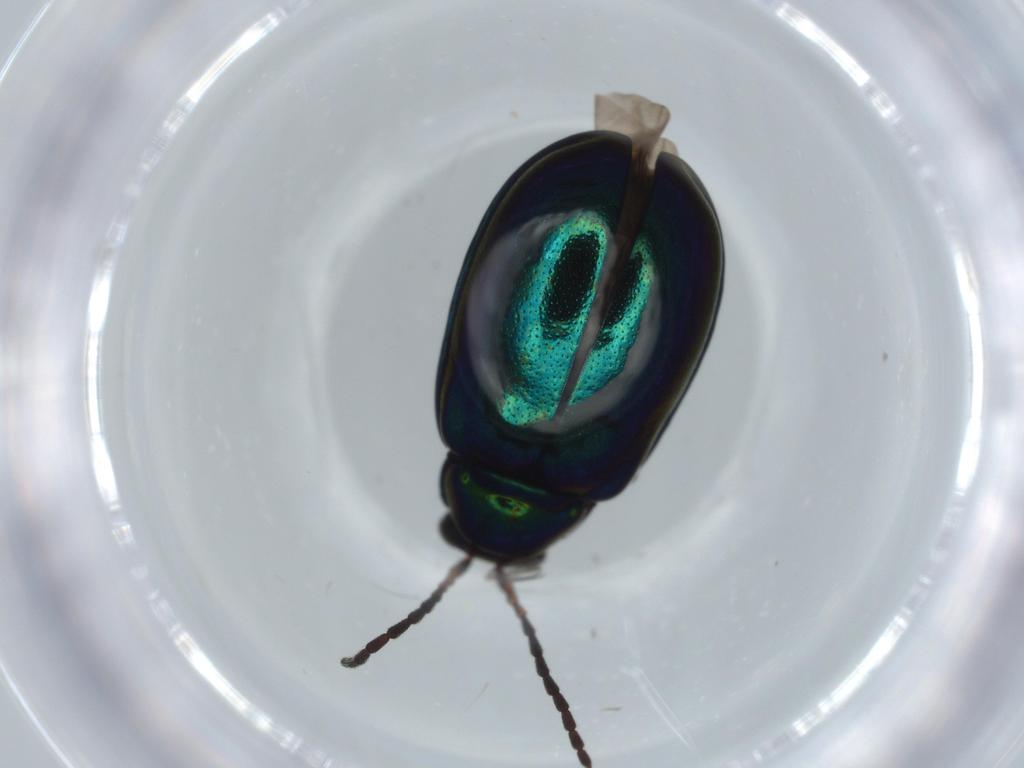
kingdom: Animalia
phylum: Arthropoda
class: Insecta
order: Coleoptera
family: Chrysomelidae
